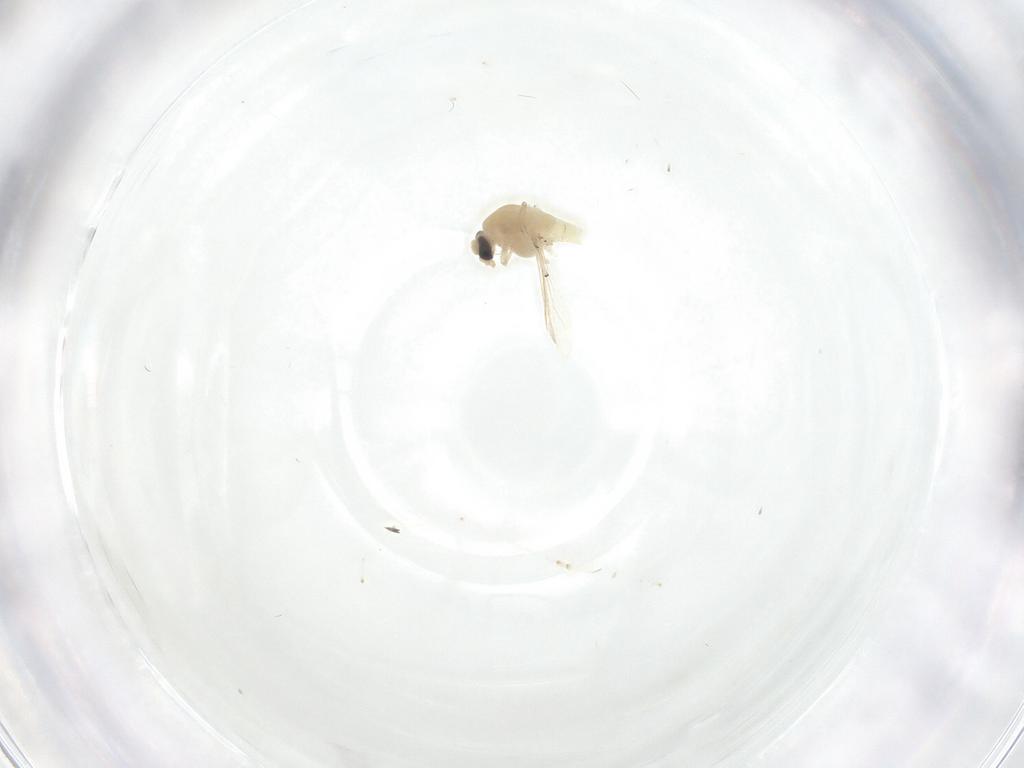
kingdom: Animalia
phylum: Arthropoda
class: Insecta
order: Diptera
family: Chironomidae
